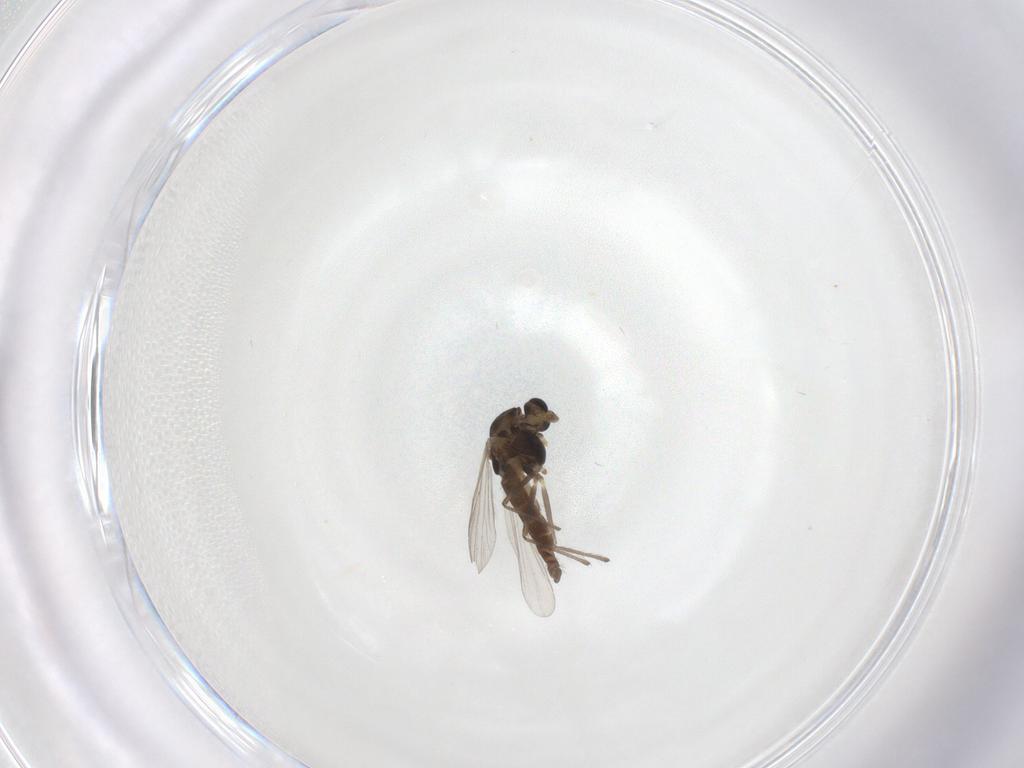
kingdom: Animalia
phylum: Arthropoda
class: Insecta
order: Diptera
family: Chironomidae
